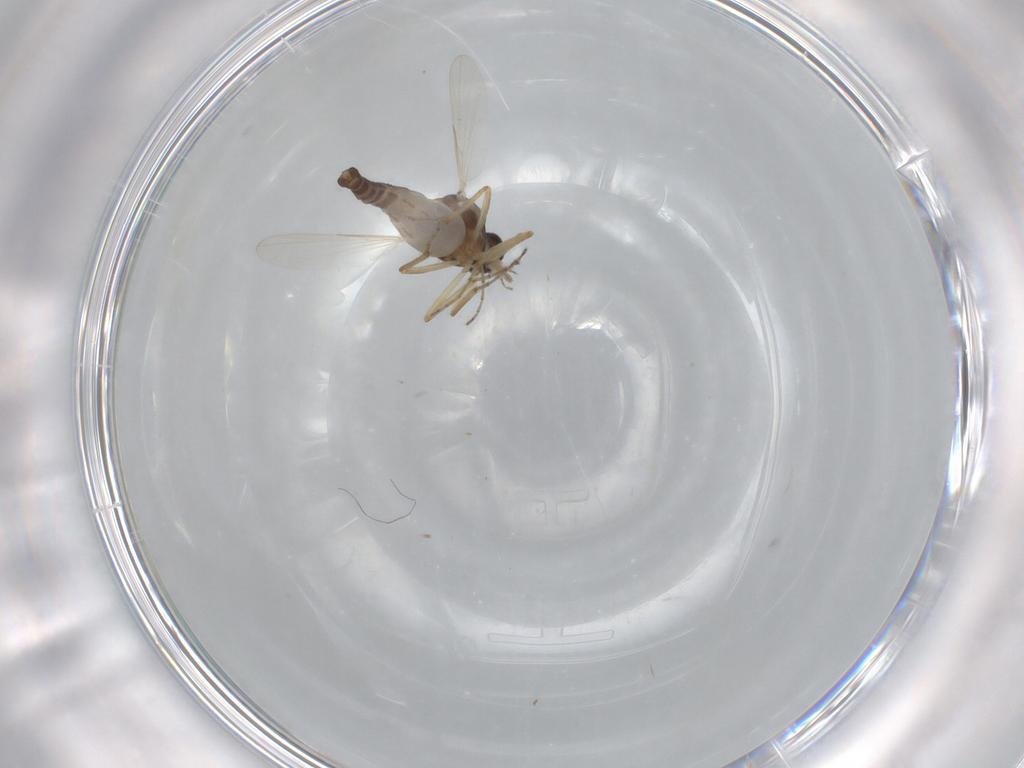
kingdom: Animalia
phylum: Arthropoda
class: Insecta
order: Diptera
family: Ceratopogonidae
